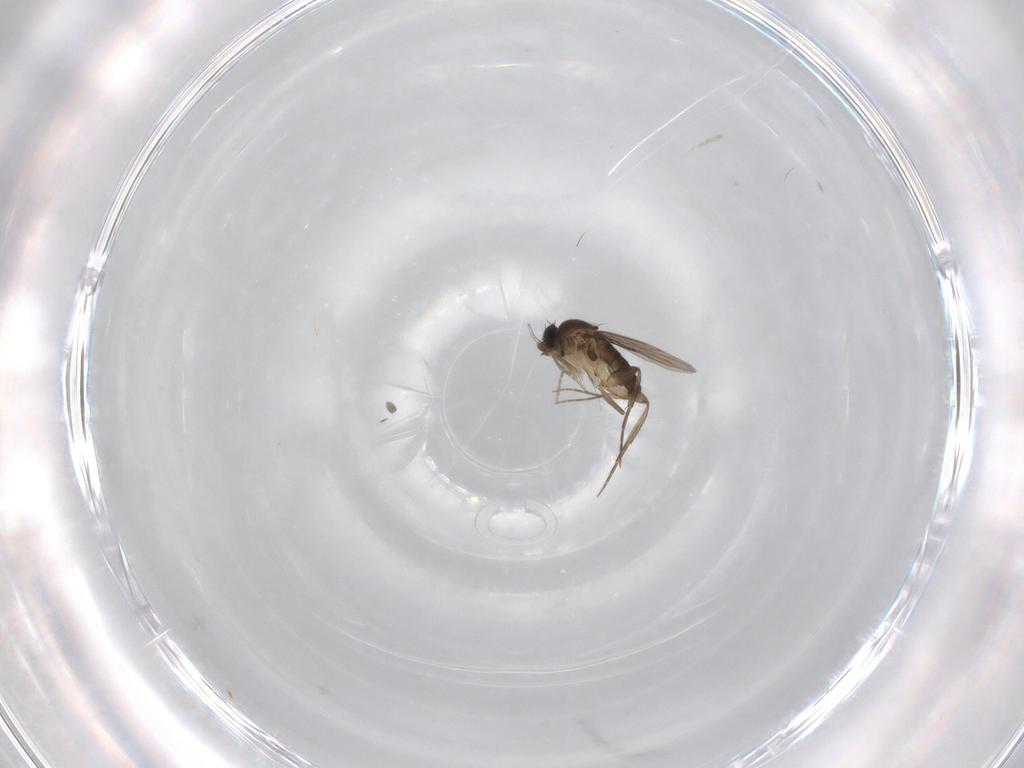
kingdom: Animalia
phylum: Arthropoda
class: Insecta
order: Diptera
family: Phoridae
